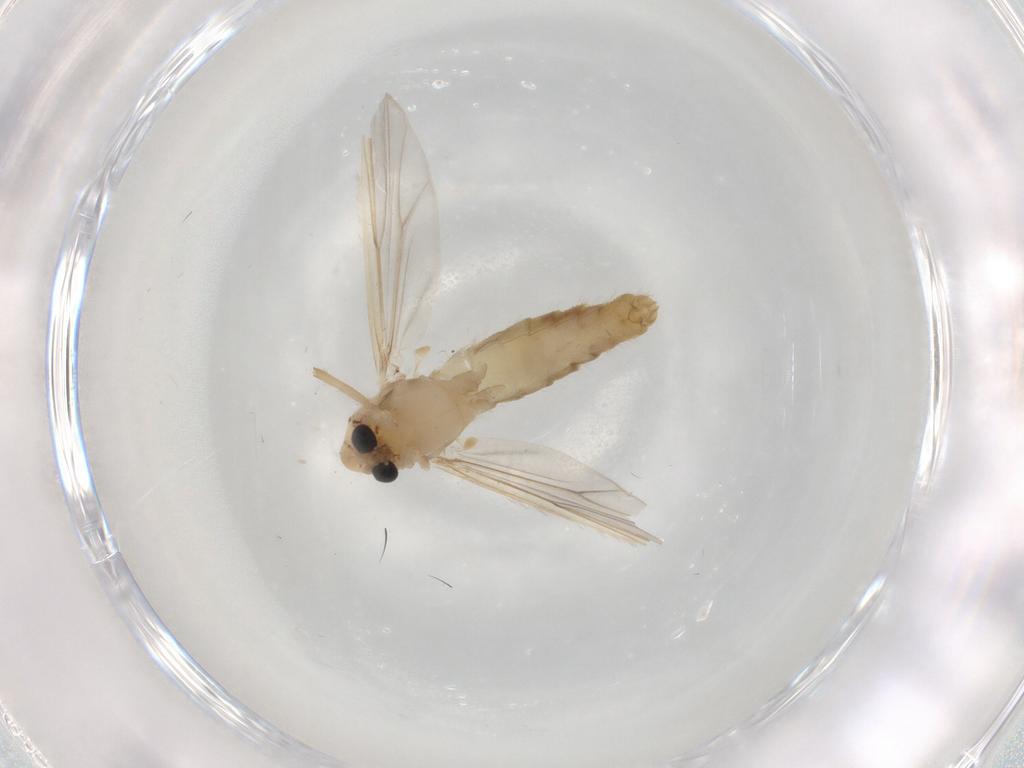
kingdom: Animalia
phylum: Arthropoda
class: Insecta
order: Diptera
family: Chironomidae
